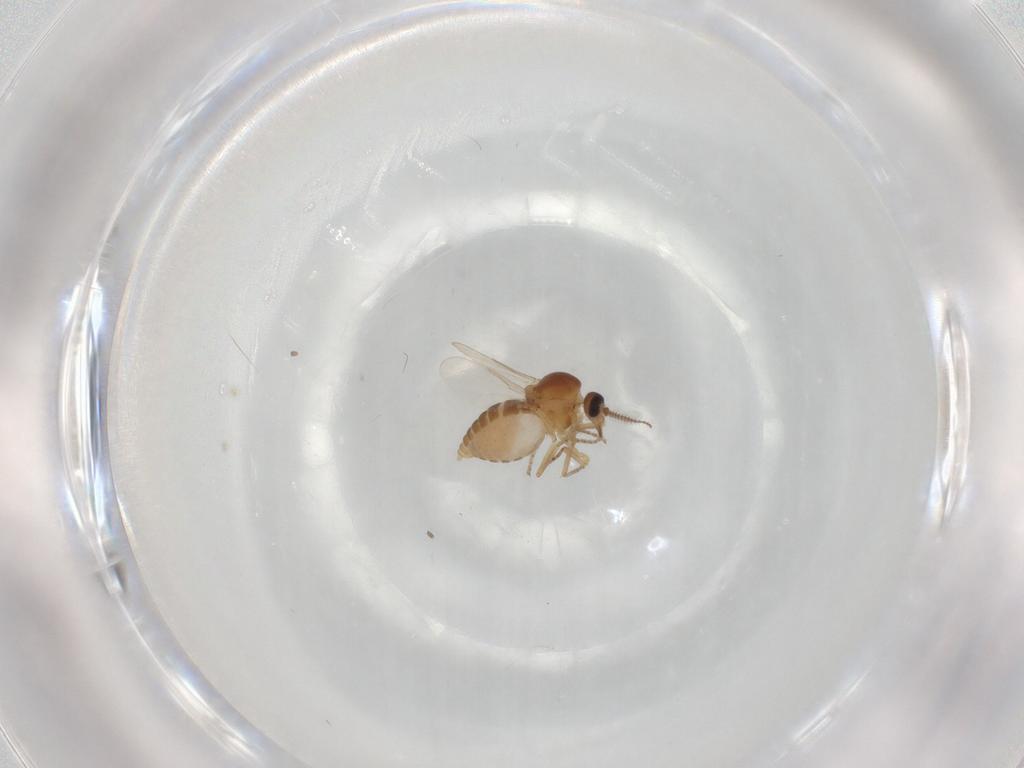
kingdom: Animalia
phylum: Arthropoda
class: Insecta
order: Diptera
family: Ceratopogonidae
